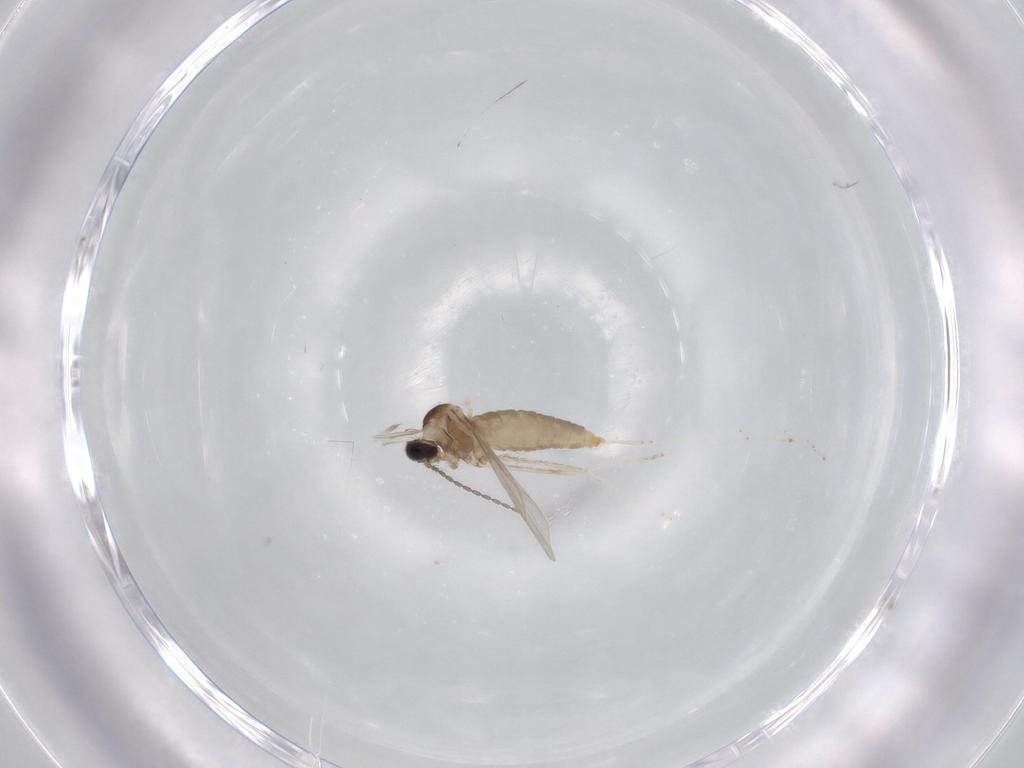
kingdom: Animalia
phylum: Arthropoda
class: Insecta
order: Diptera
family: Cecidomyiidae
